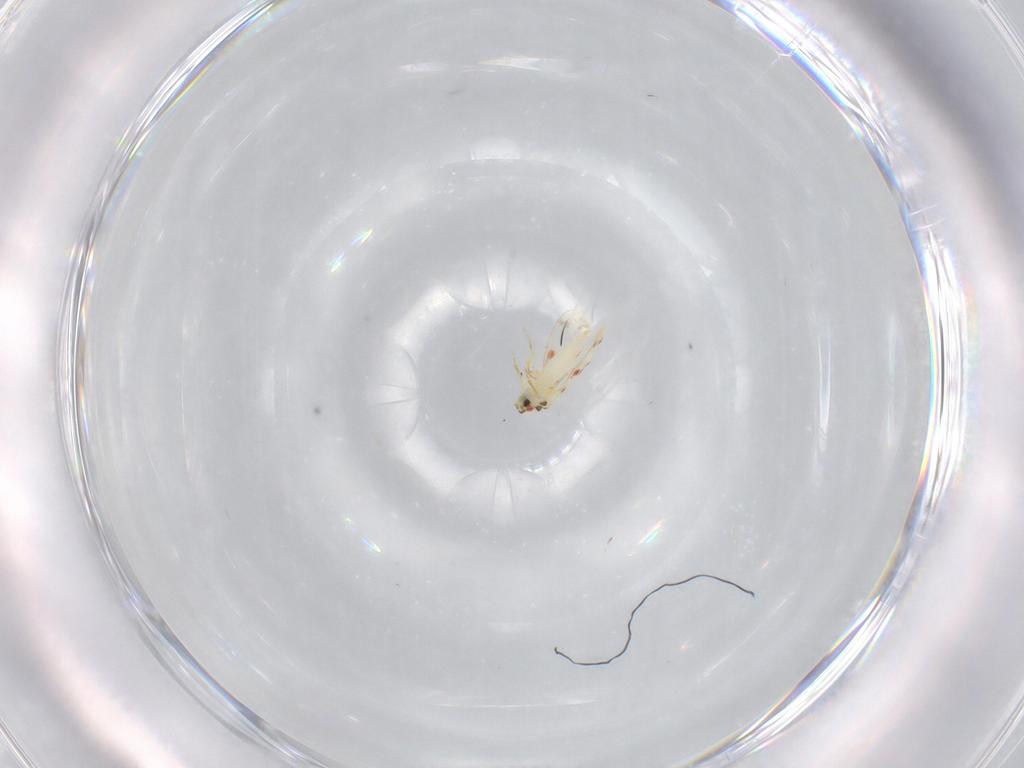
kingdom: Animalia
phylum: Arthropoda
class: Insecta
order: Hemiptera
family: Aleyrodidae
